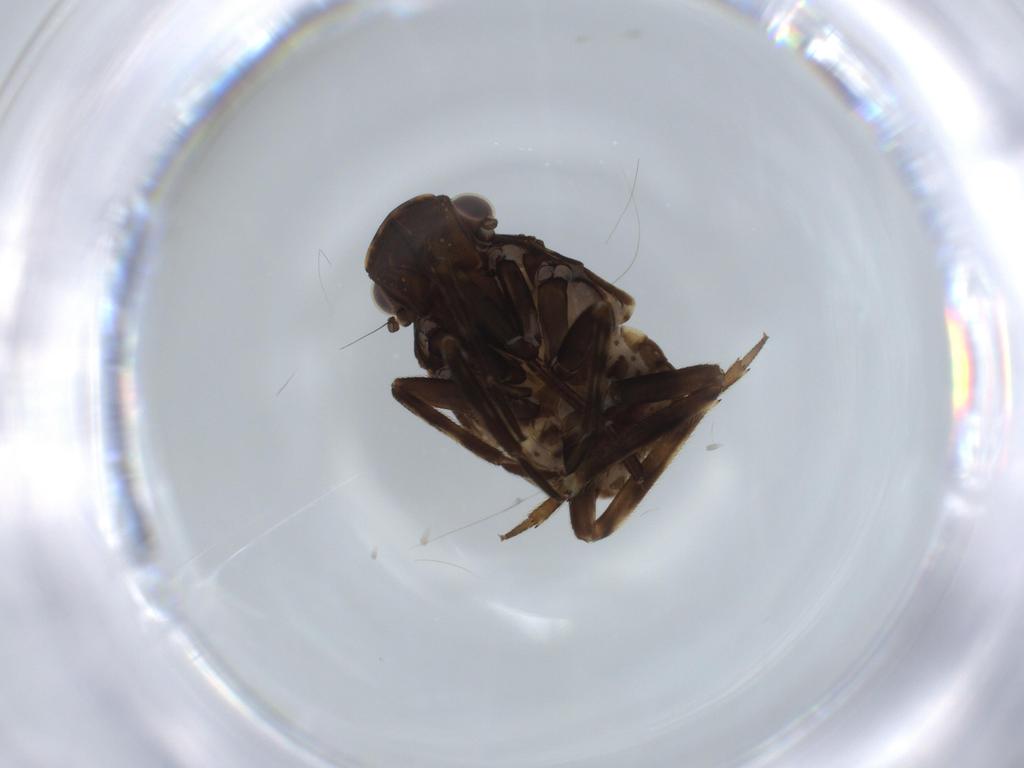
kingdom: Animalia
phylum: Arthropoda
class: Insecta
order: Hemiptera
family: Fulgoridae
